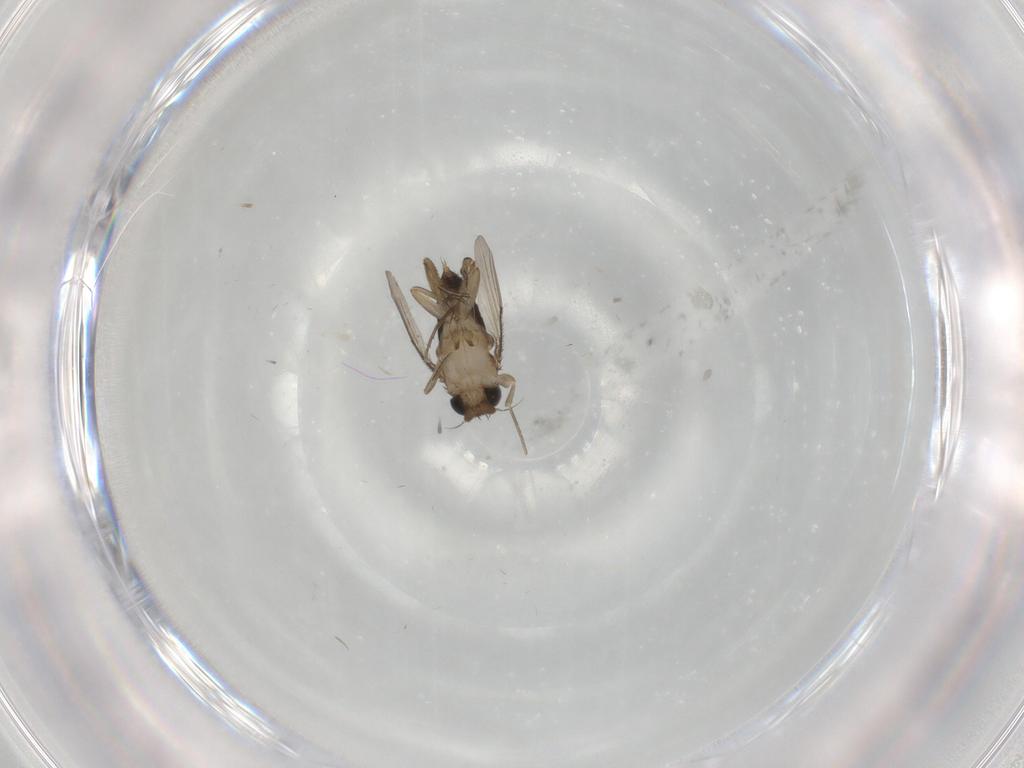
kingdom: Animalia
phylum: Arthropoda
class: Insecta
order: Diptera
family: Phoridae
